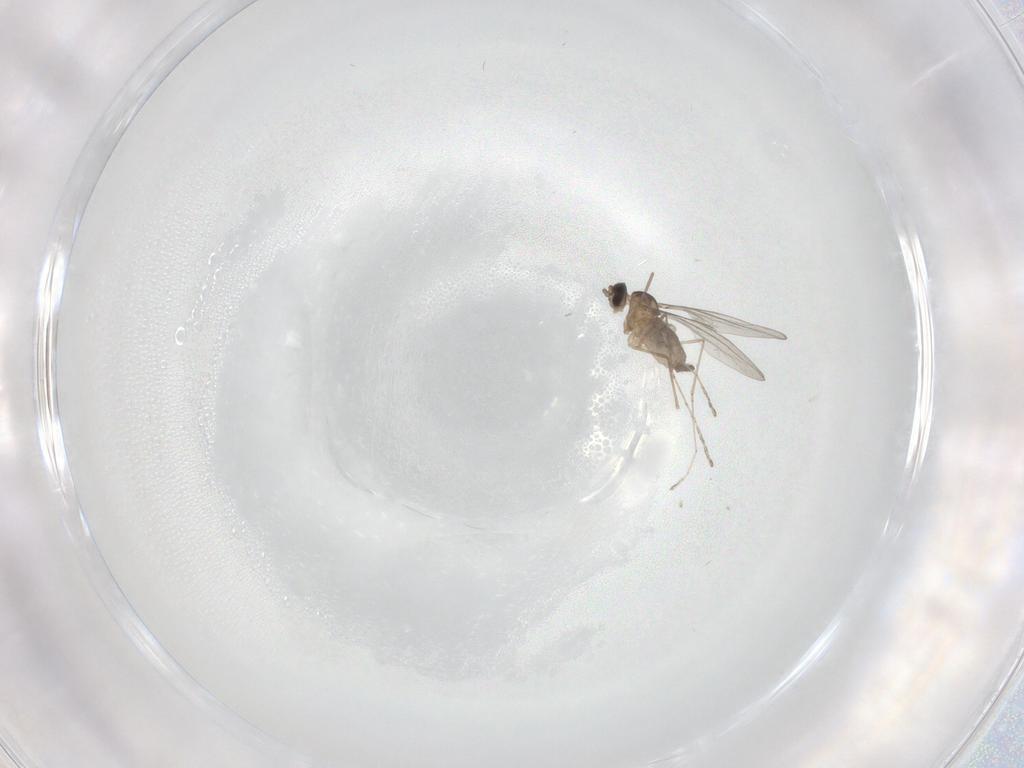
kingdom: Animalia
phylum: Arthropoda
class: Insecta
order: Diptera
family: Cecidomyiidae
